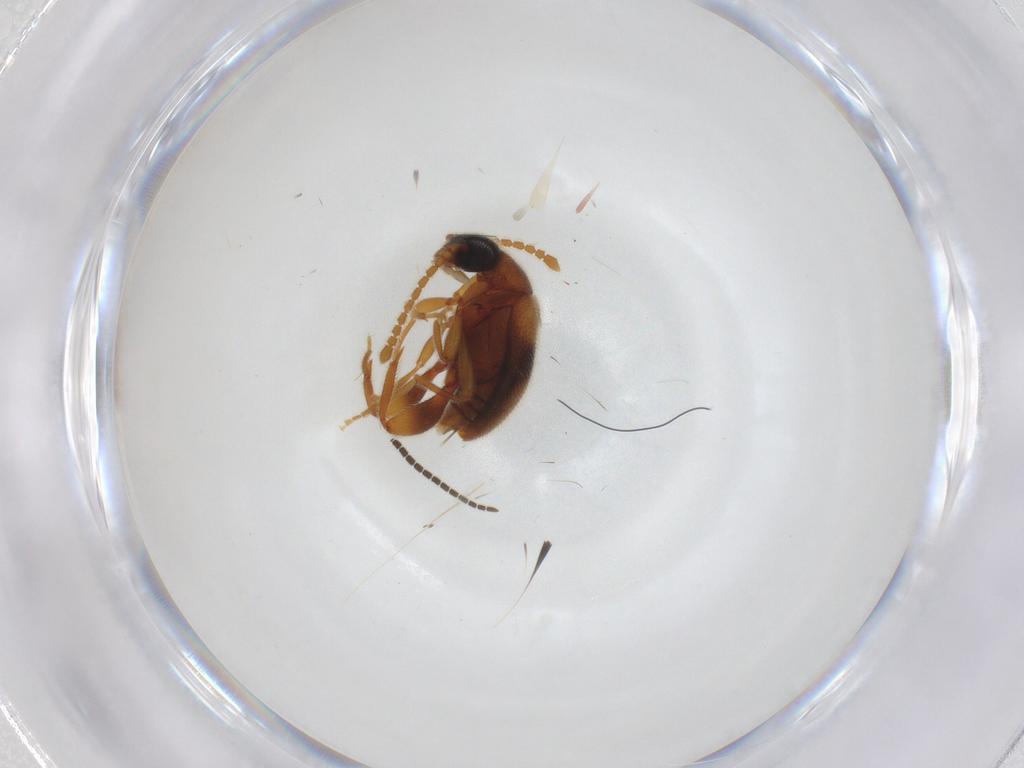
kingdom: Animalia
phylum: Arthropoda
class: Insecta
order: Coleoptera
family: Aderidae
